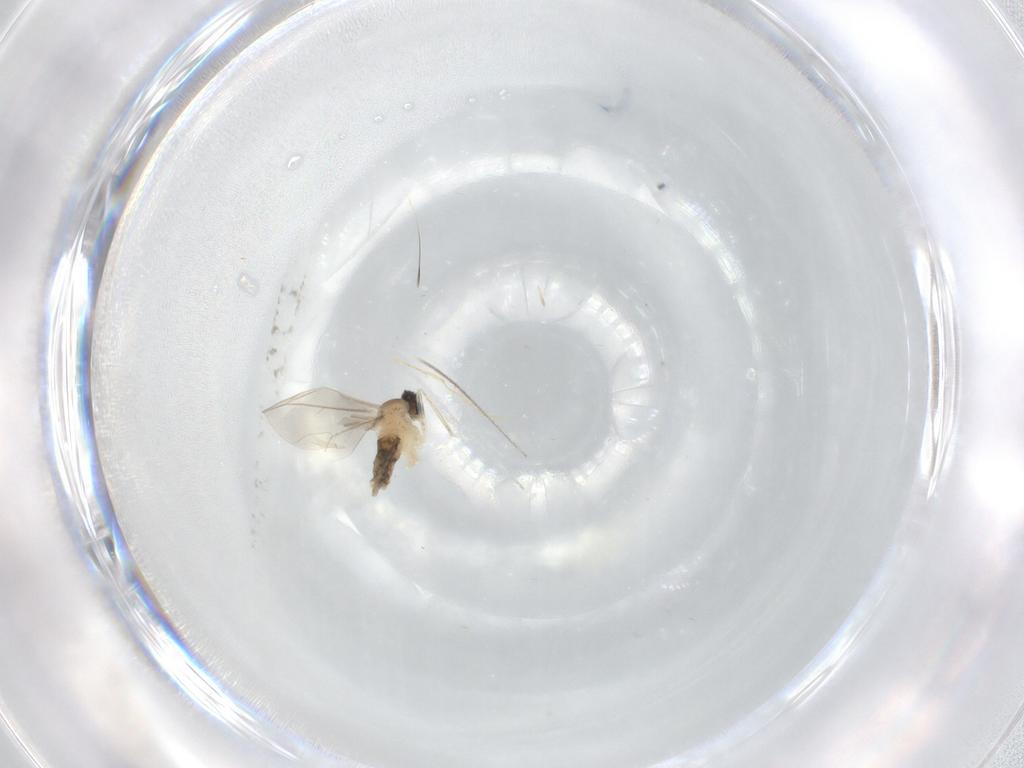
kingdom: Animalia
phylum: Arthropoda
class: Insecta
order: Diptera
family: Cecidomyiidae
